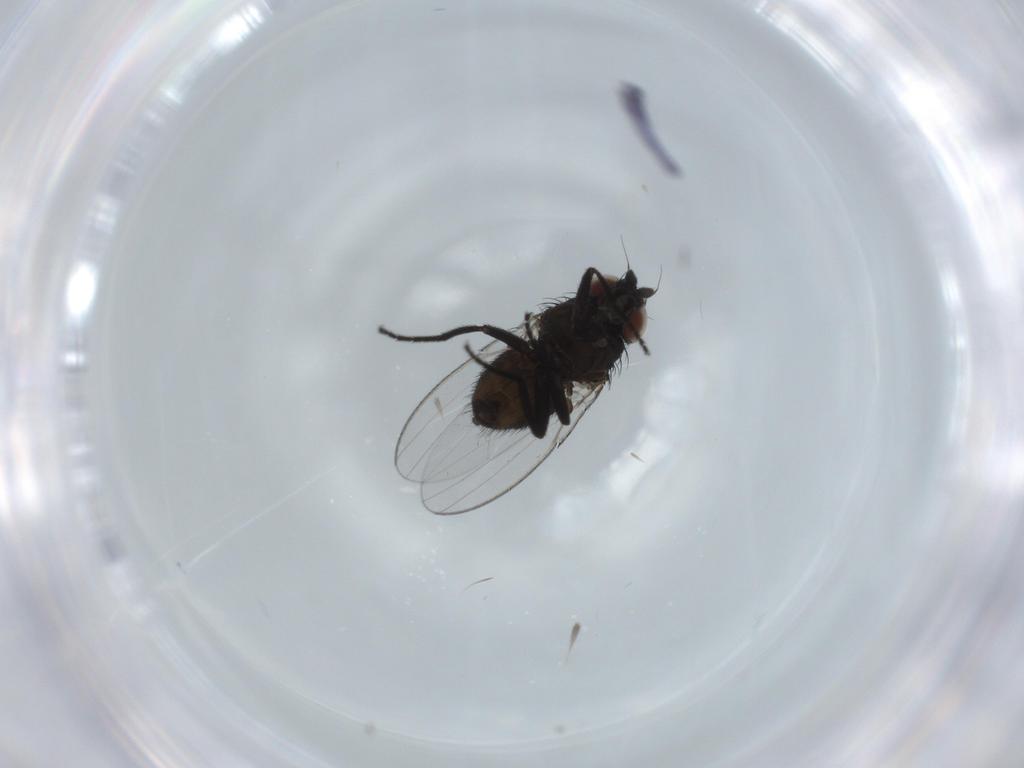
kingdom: Animalia
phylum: Arthropoda
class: Insecta
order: Diptera
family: Milichiidae
